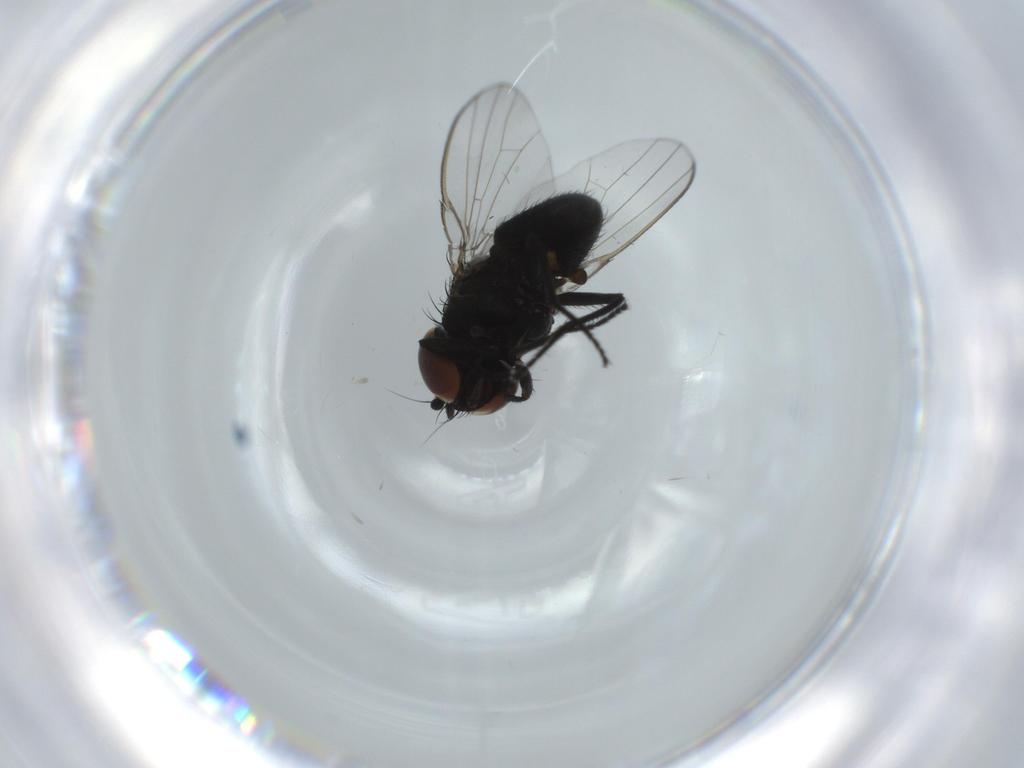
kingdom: Animalia
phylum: Arthropoda
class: Insecta
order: Diptera
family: Milichiidae
